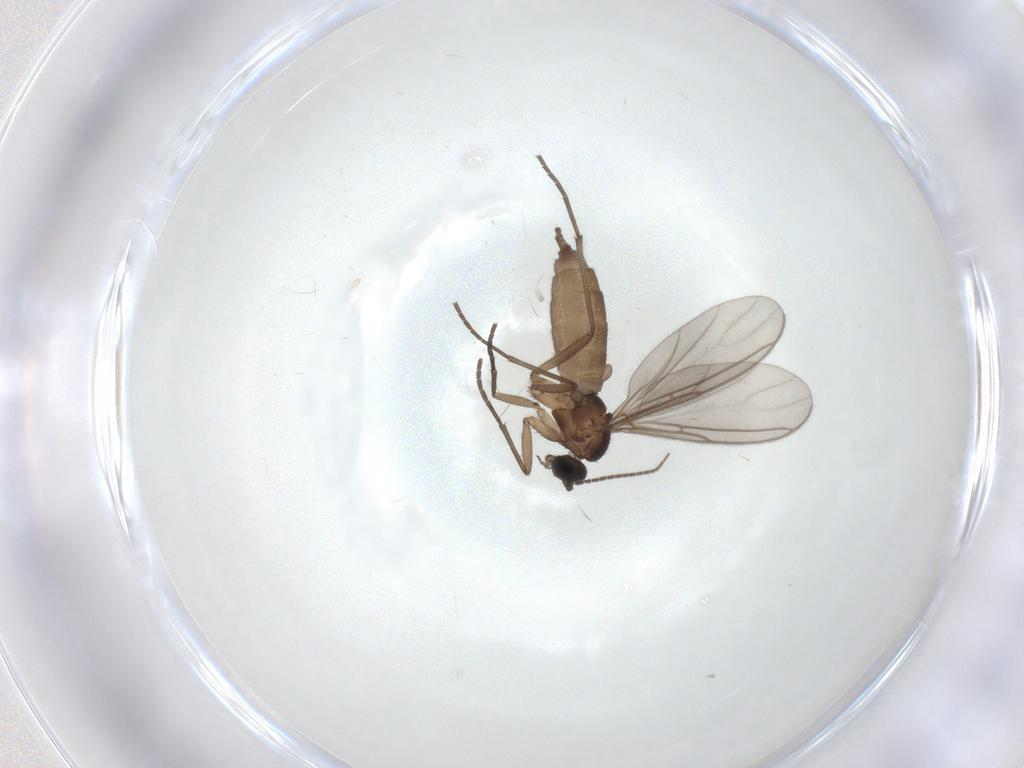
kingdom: Animalia
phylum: Arthropoda
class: Insecta
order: Diptera
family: Sciaridae
